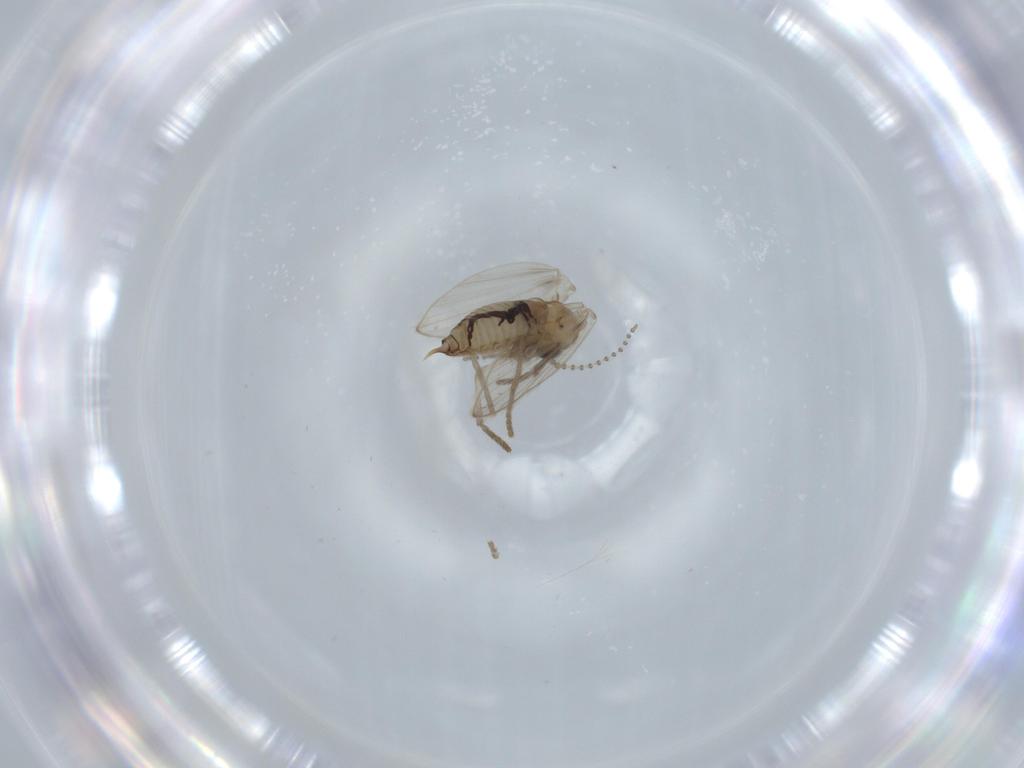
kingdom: Animalia
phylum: Arthropoda
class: Insecta
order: Diptera
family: Psychodidae
